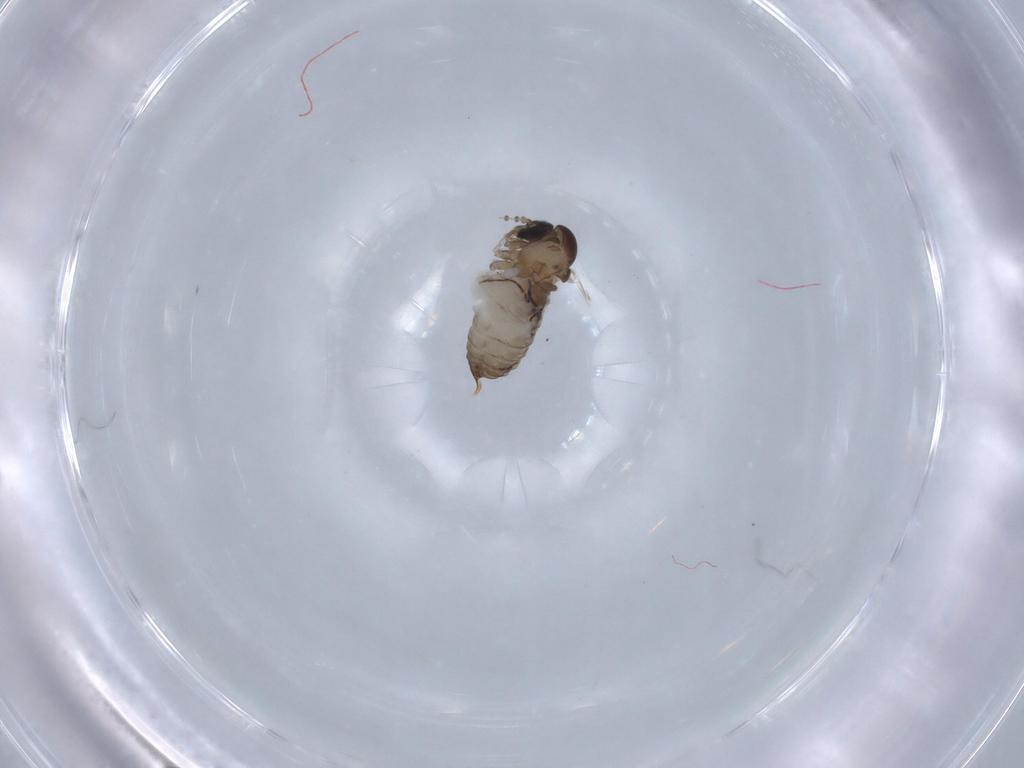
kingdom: Animalia
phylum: Arthropoda
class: Insecta
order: Diptera
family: Psychodidae
